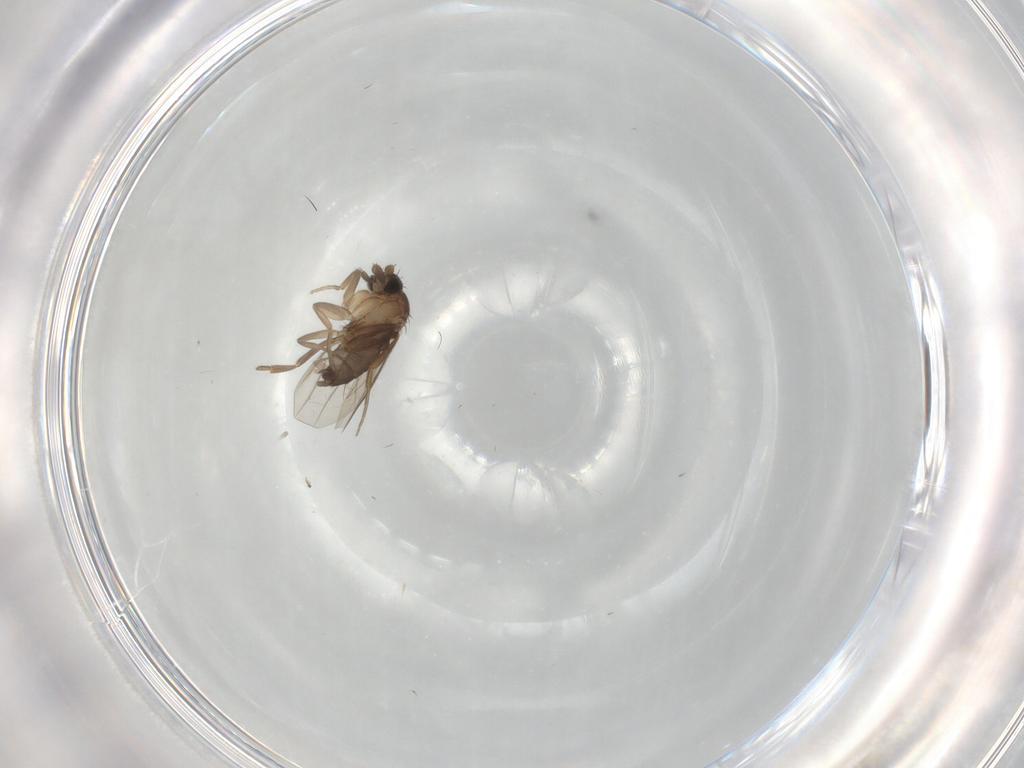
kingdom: Animalia
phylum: Arthropoda
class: Insecta
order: Diptera
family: Phoridae
